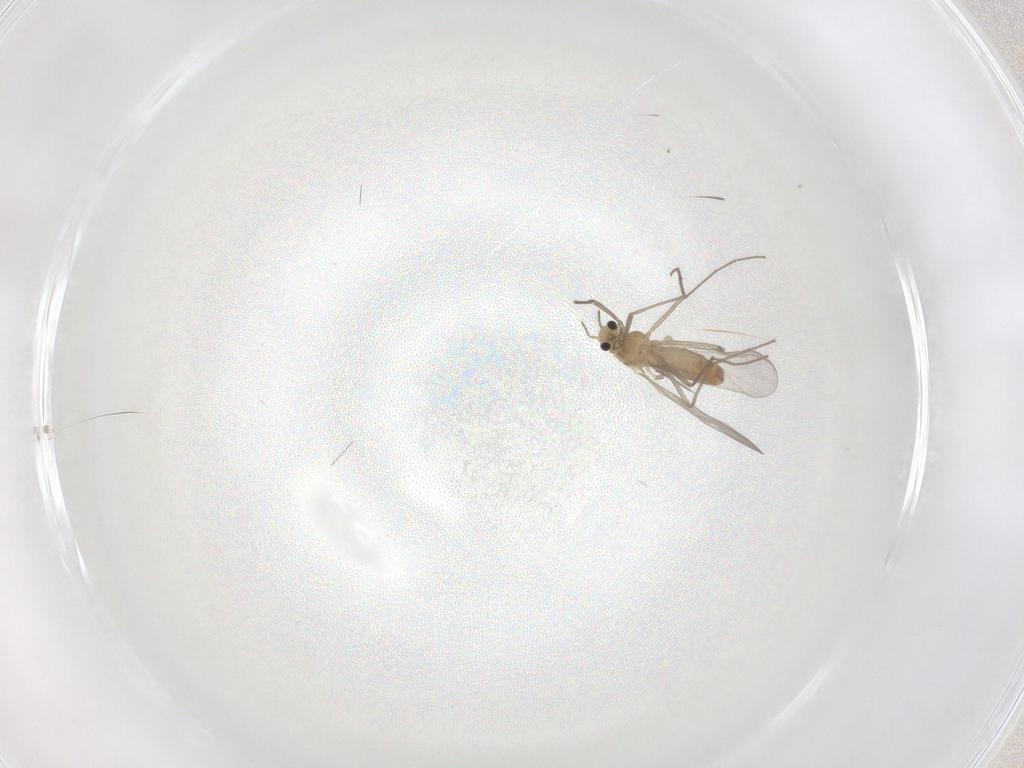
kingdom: Animalia
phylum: Arthropoda
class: Insecta
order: Diptera
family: Chironomidae
